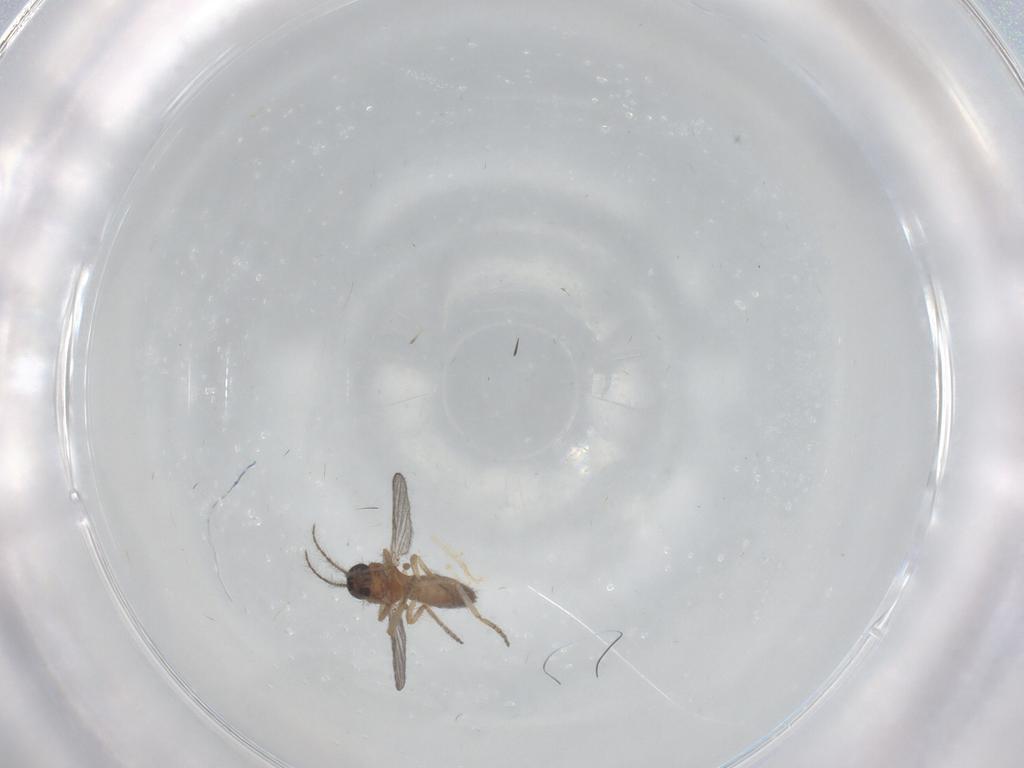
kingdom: Animalia
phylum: Arthropoda
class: Insecta
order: Diptera
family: Ceratopogonidae
